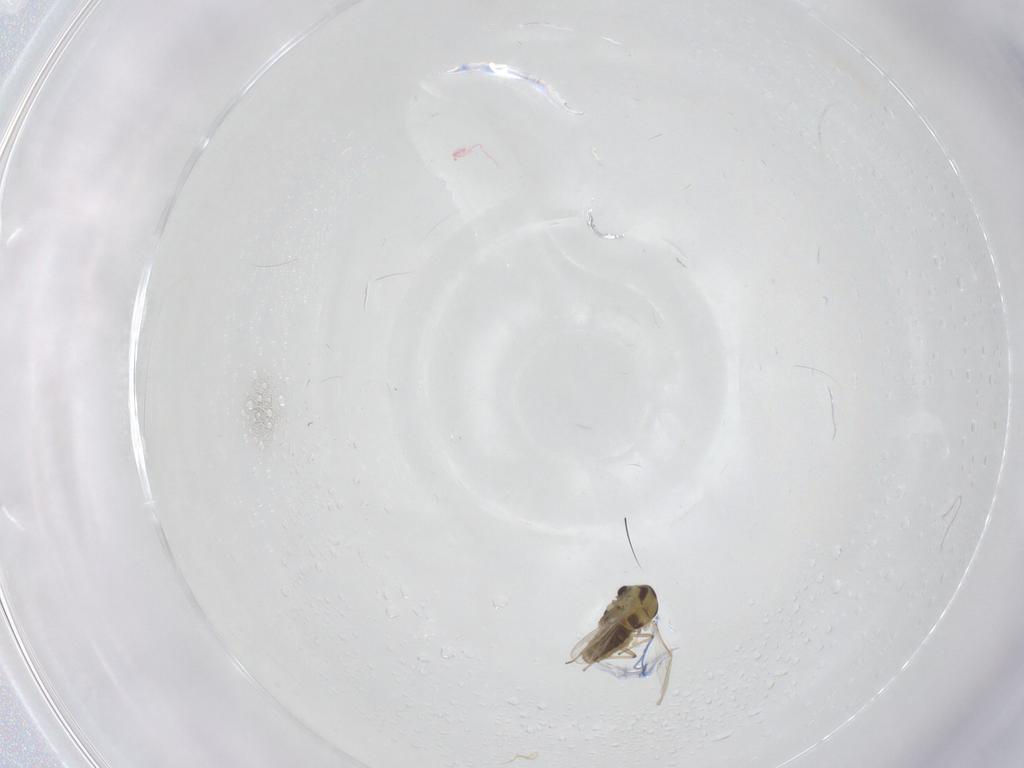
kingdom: Animalia
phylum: Arthropoda
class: Insecta
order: Diptera
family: Chironomidae
